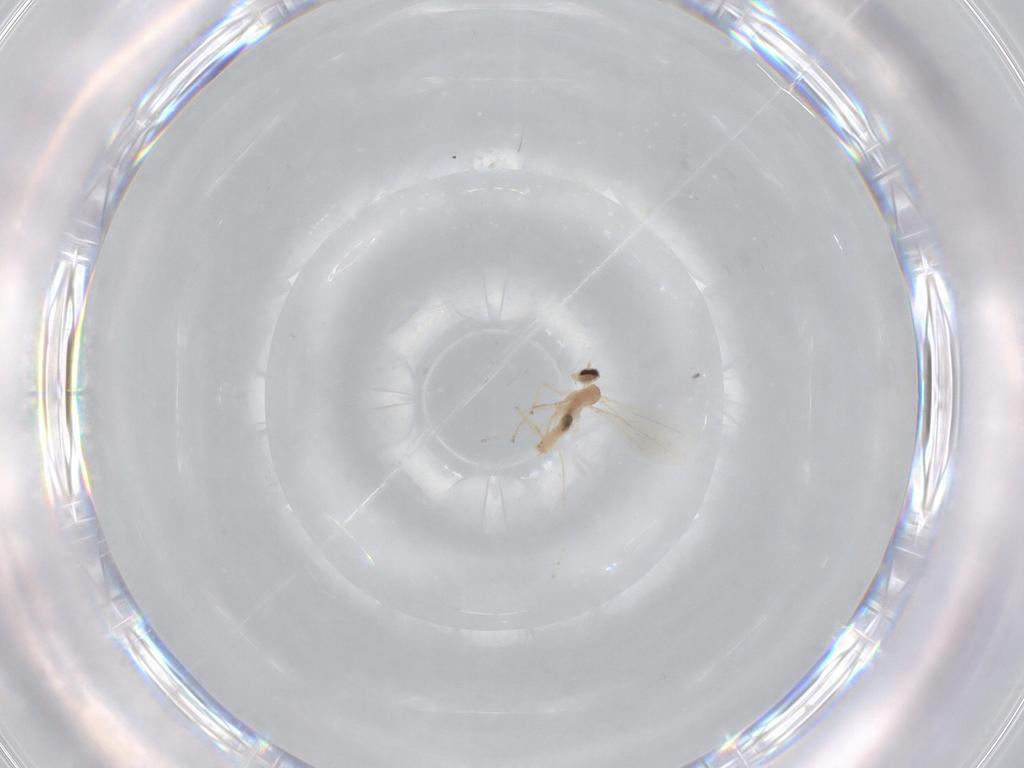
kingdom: Animalia
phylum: Arthropoda
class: Insecta
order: Diptera
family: Cecidomyiidae
